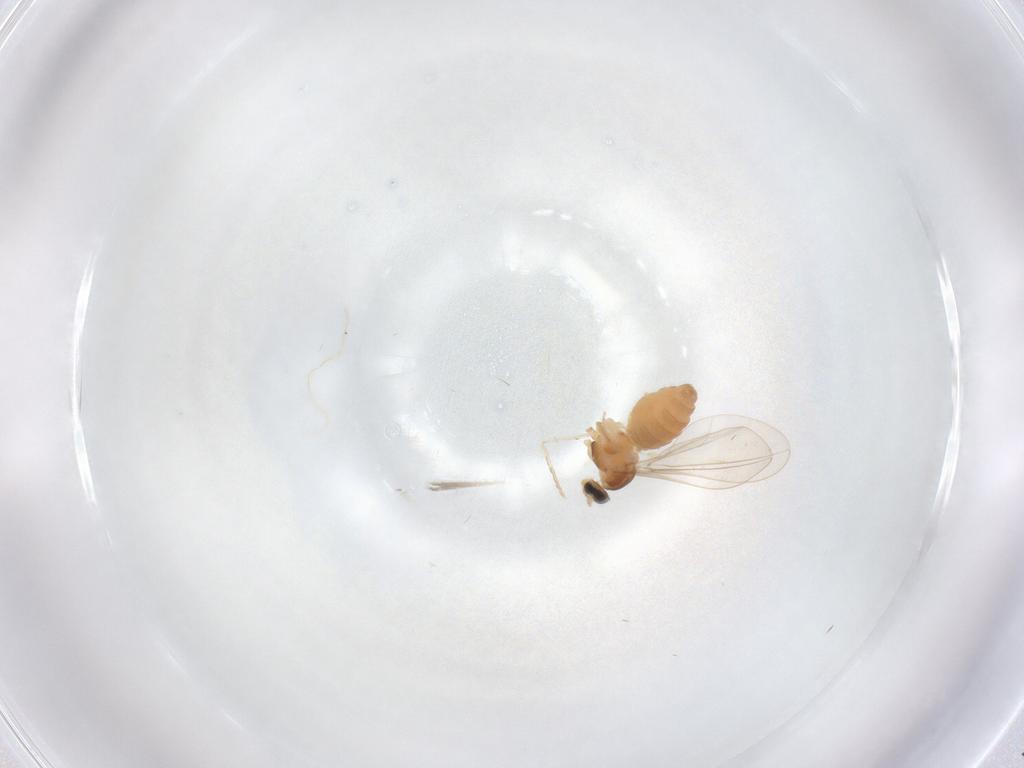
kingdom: Animalia
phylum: Arthropoda
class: Insecta
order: Diptera
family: Cecidomyiidae
